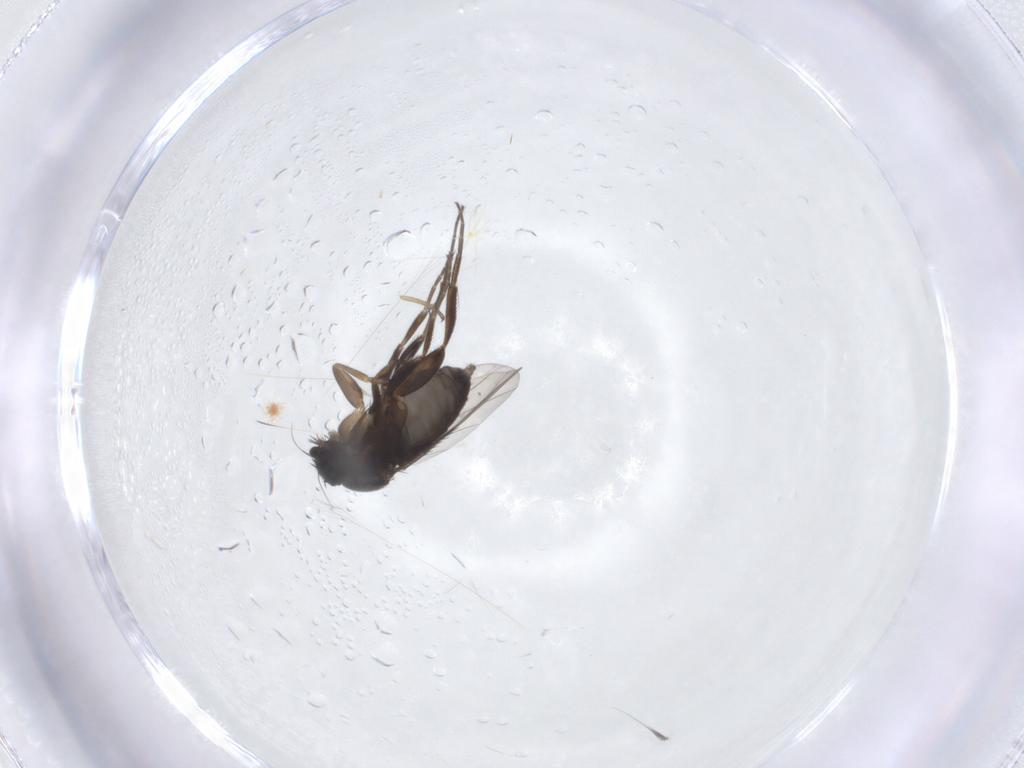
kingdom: Animalia
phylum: Arthropoda
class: Insecta
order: Diptera
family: Phoridae
